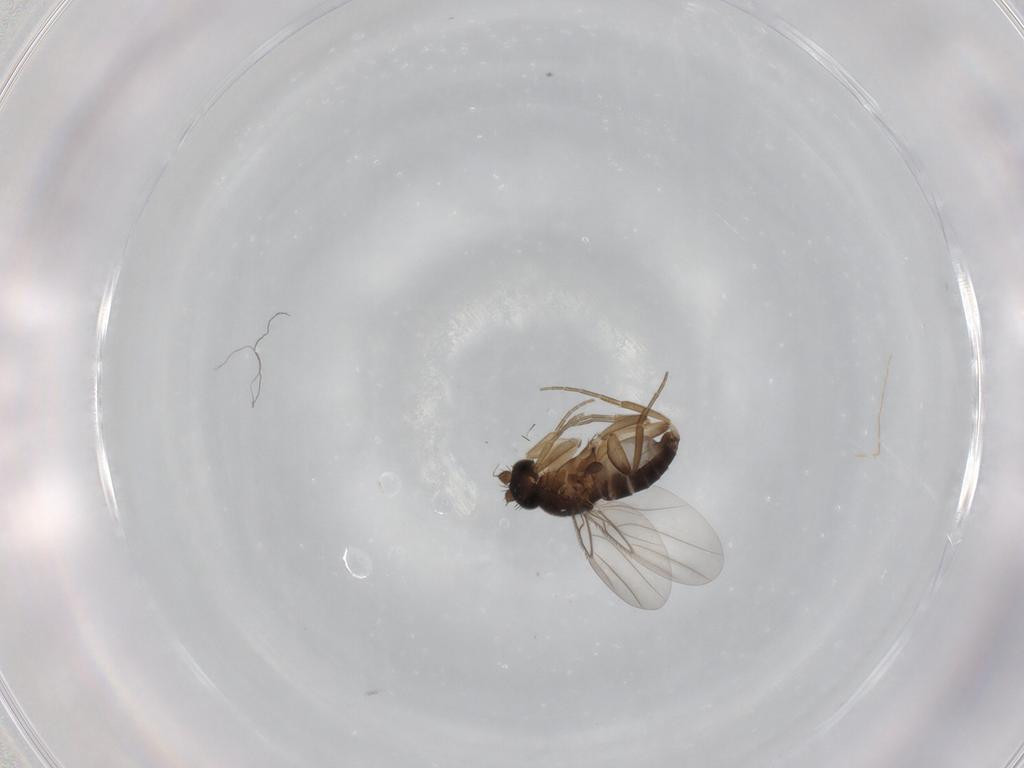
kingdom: Animalia
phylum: Arthropoda
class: Insecta
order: Diptera
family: Phoridae
